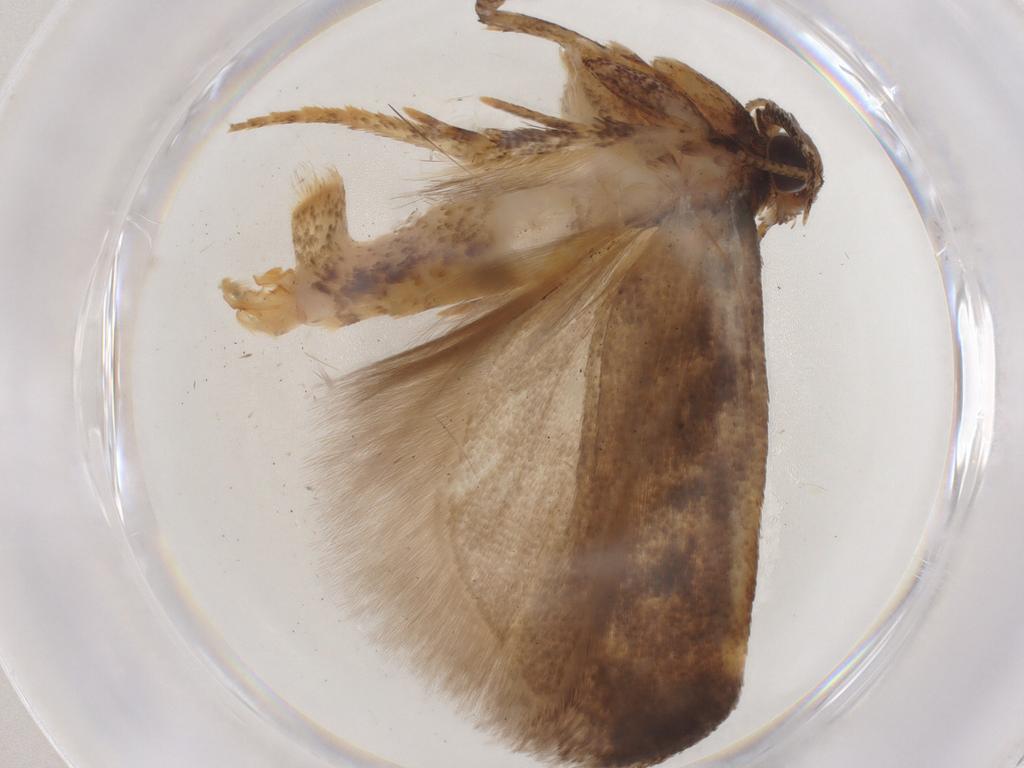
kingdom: Animalia
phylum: Arthropoda
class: Insecta
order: Lepidoptera
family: Gelechiidae
